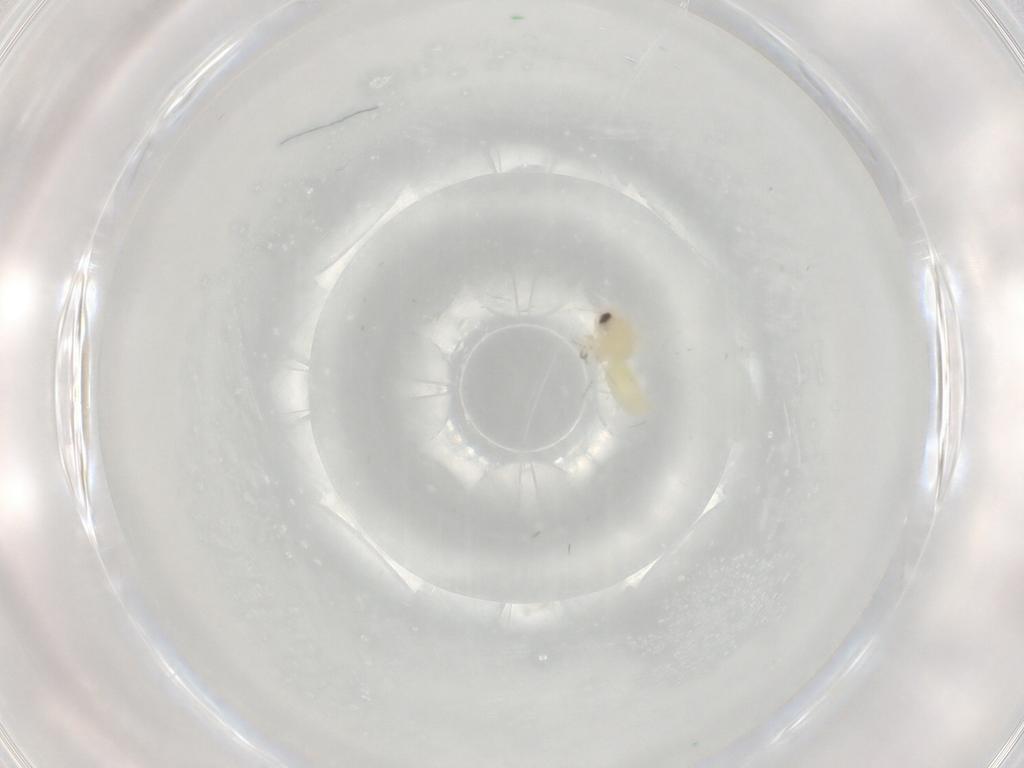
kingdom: Animalia
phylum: Arthropoda
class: Insecta
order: Hemiptera
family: Aleyrodidae
